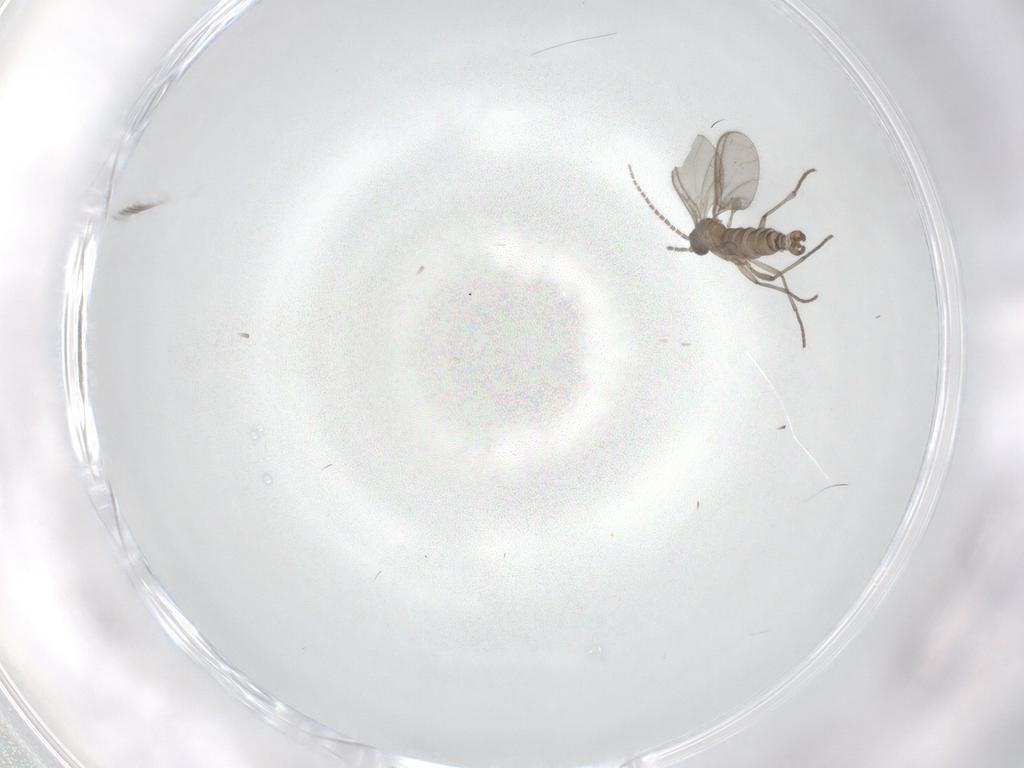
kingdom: Animalia
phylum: Arthropoda
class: Insecta
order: Diptera
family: Sciaridae
